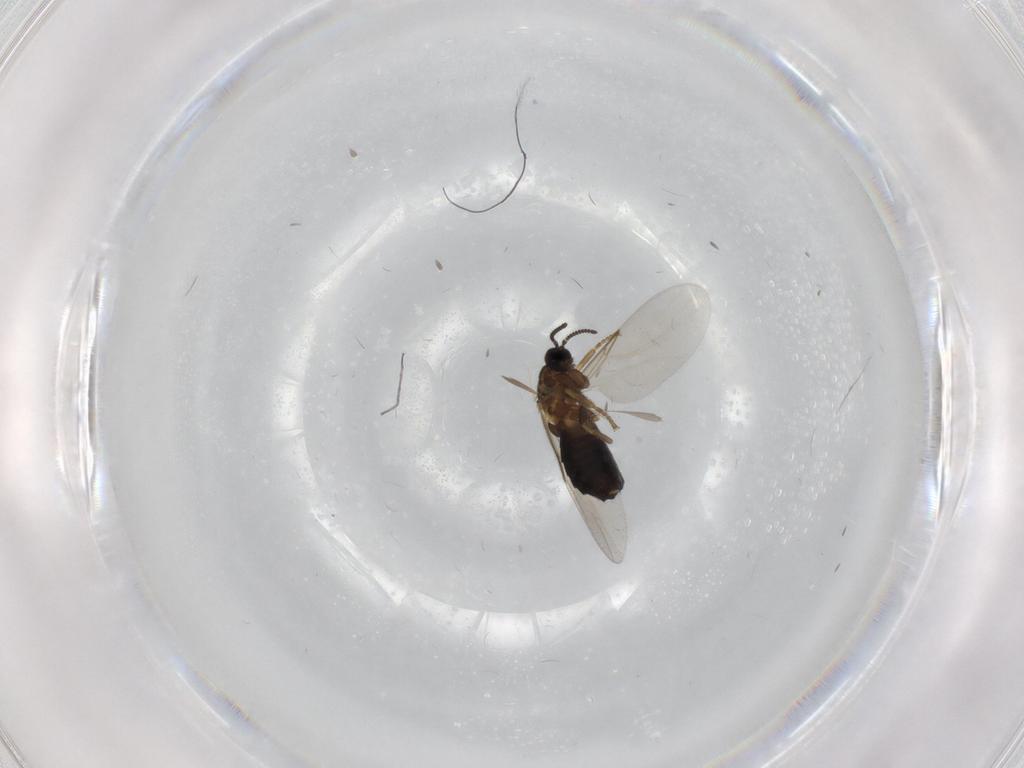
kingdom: Animalia
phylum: Arthropoda
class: Insecta
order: Diptera
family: Scatopsidae
